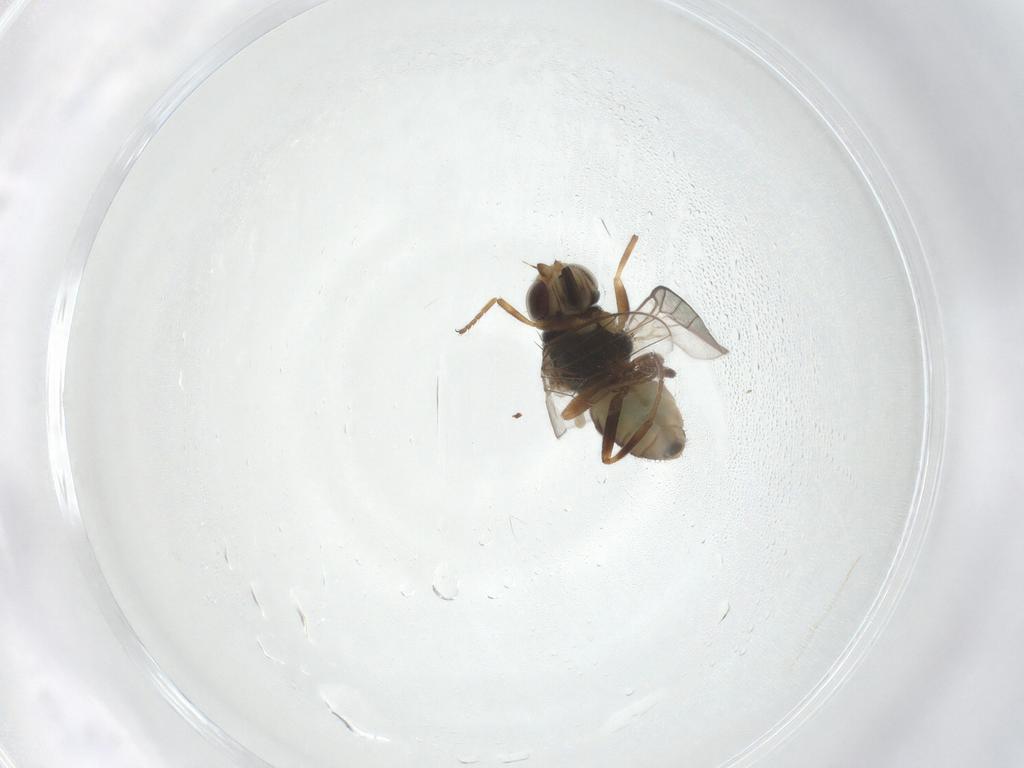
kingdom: Animalia
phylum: Arthropoda
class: Insecta
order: Diptera
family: Chloropidae
